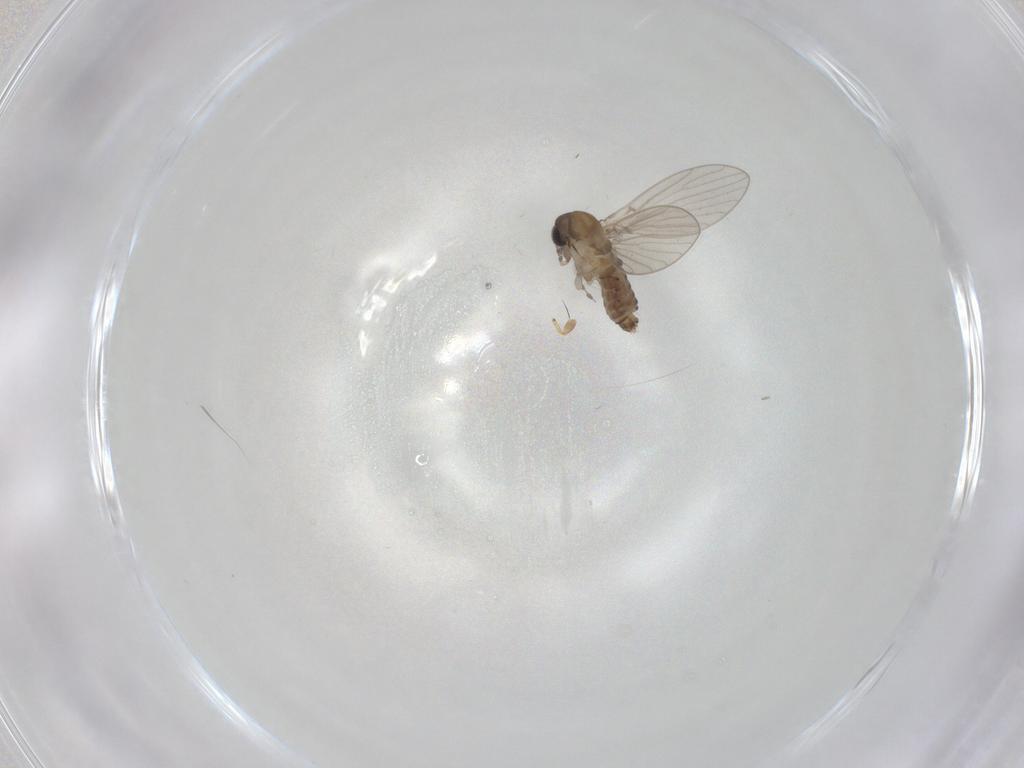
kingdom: Animalia
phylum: Arthropoda
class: Insecta
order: Diptera
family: Psychodidae
